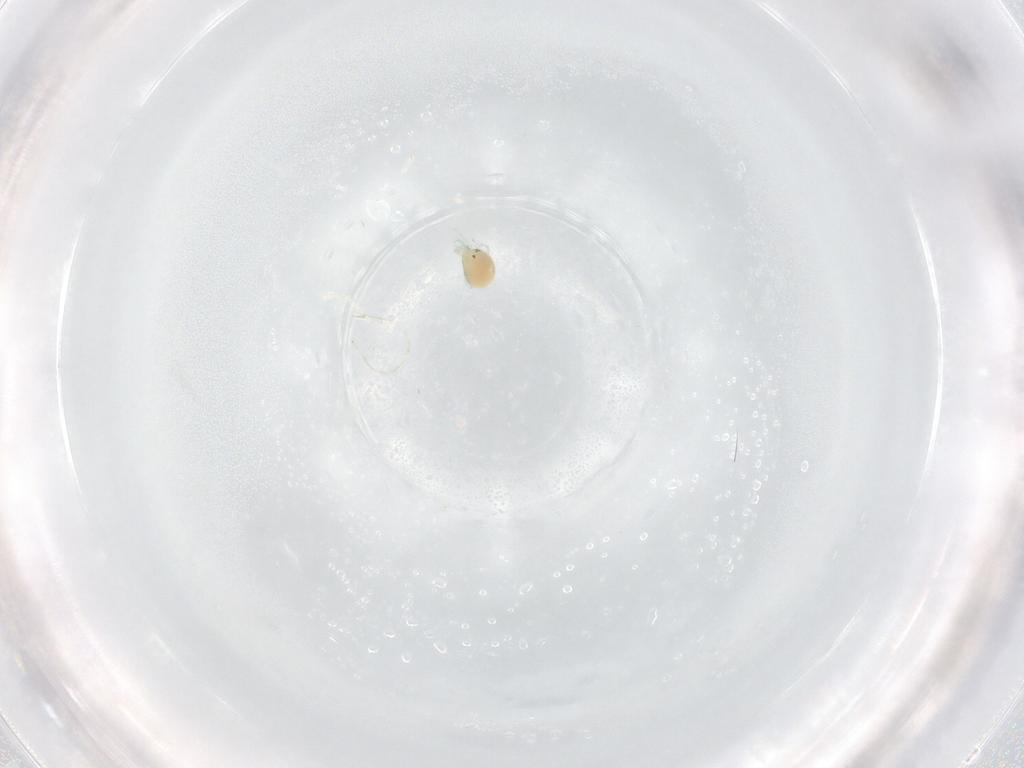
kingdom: Animalia
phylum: Arthropoda
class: Arachnida
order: Trombidiformes
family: Limnesiidae
